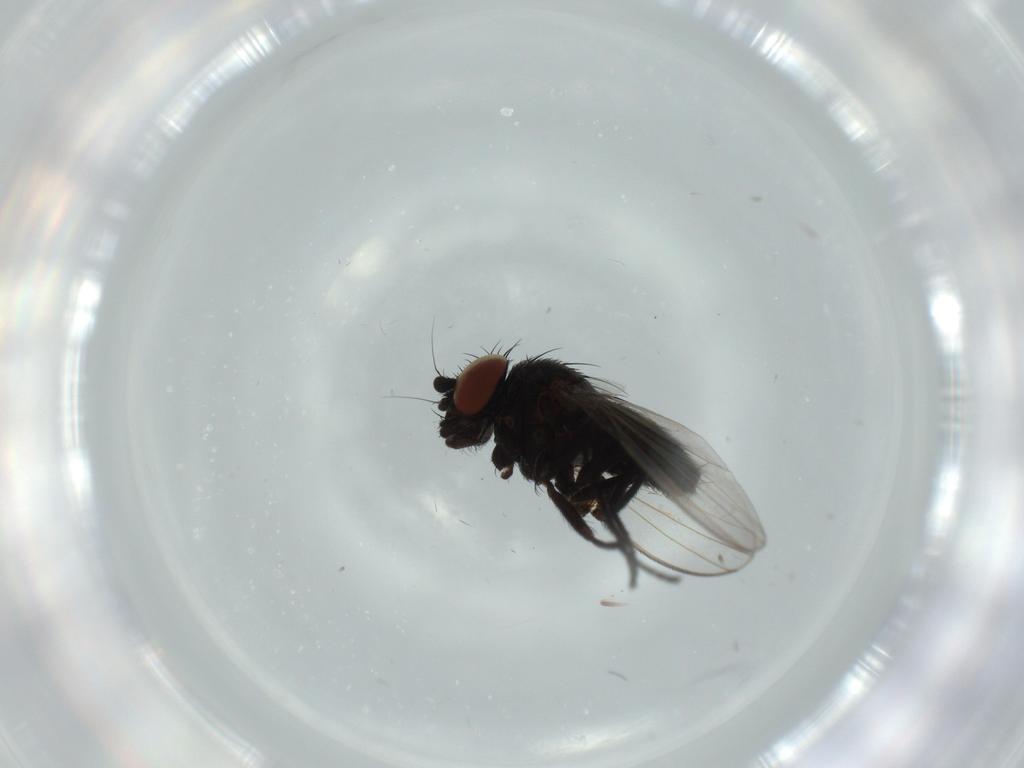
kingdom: Animalia
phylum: Arthropoda
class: Insecta
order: Diptera
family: Milichiidae
